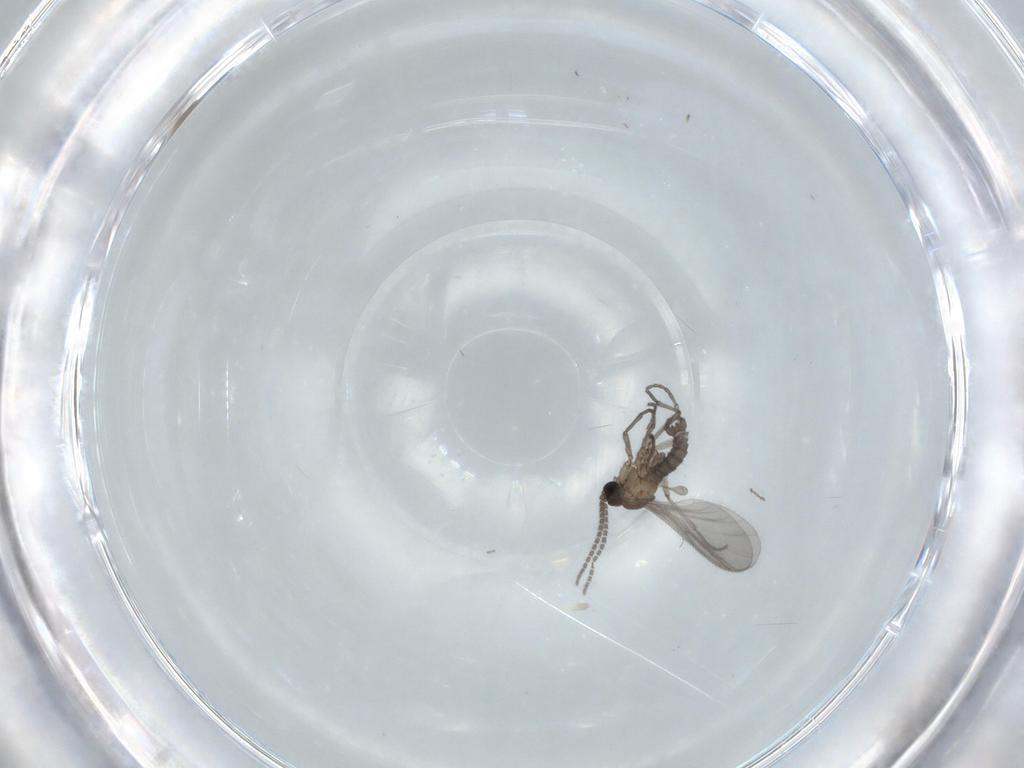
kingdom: Animalia
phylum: Arthropoda
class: Insecta
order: Diptera
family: Sciaridae
